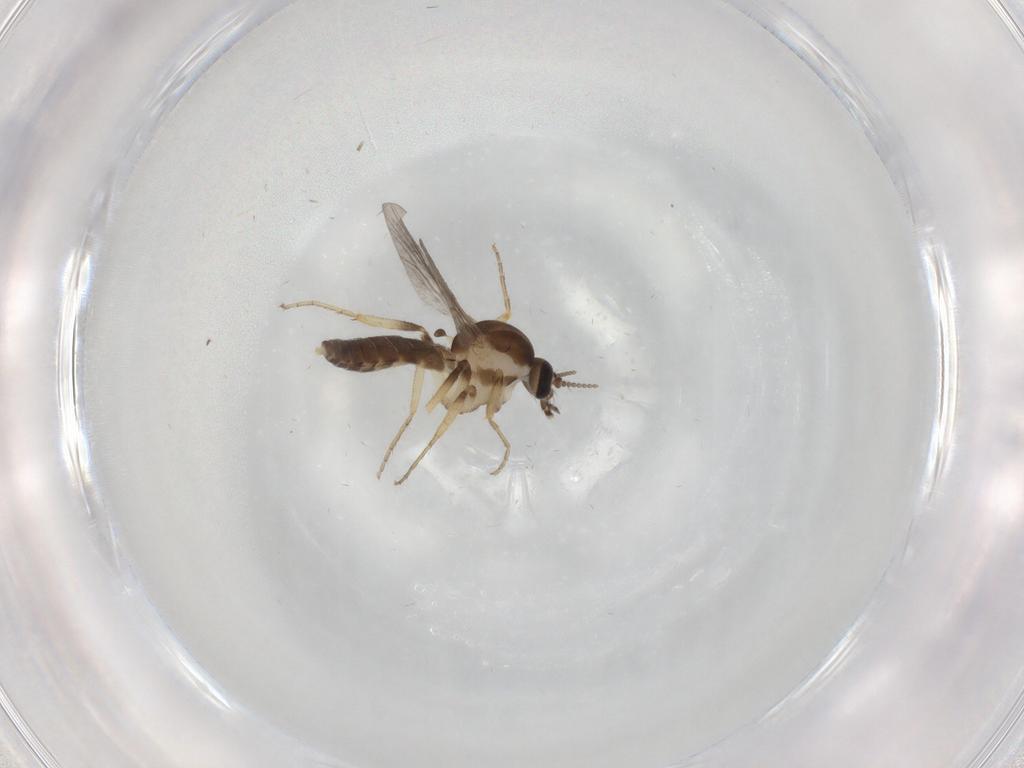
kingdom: Animalia
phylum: Arthropoda
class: Insecta
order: Diptera
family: Ceratopogonidae
